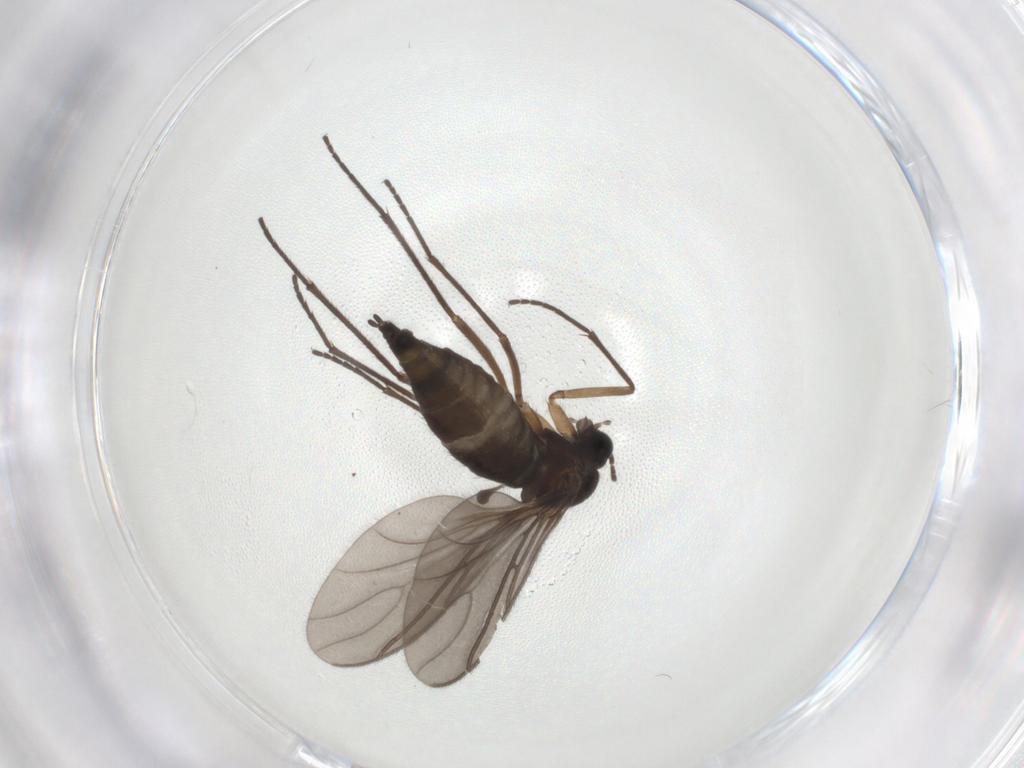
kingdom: Animalia
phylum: Arthropoda
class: Insecta
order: Diptera
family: Sciaridae
